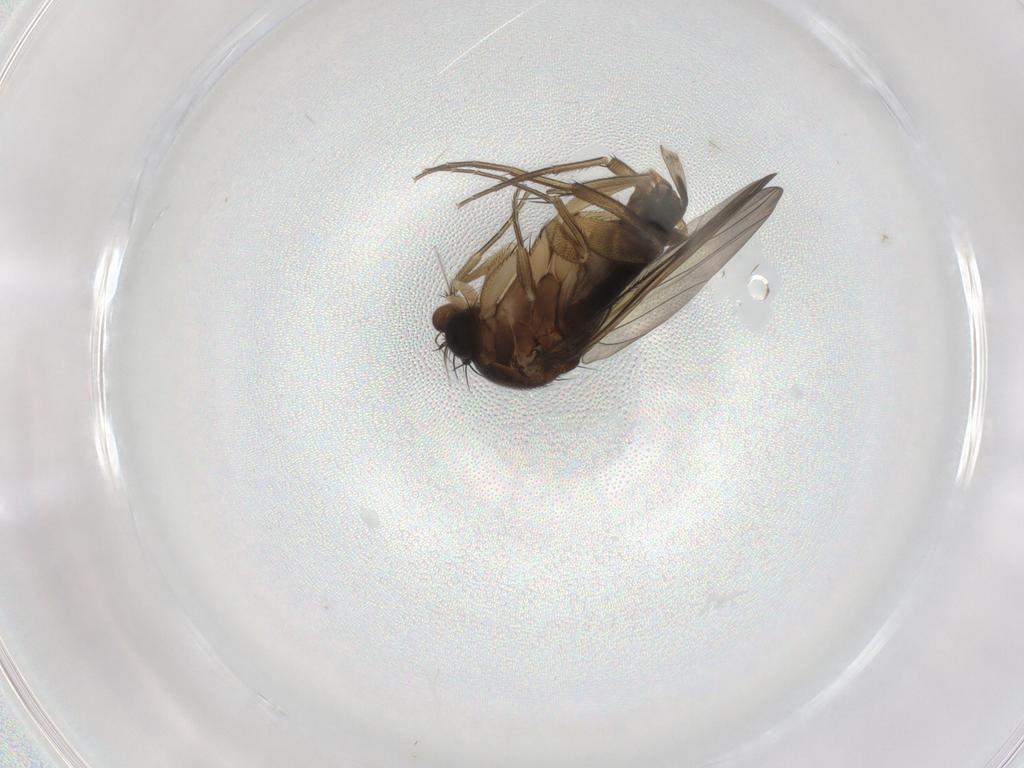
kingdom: Animalia
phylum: Arthropoda
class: Insecta
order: Diptera
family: Phoridae
